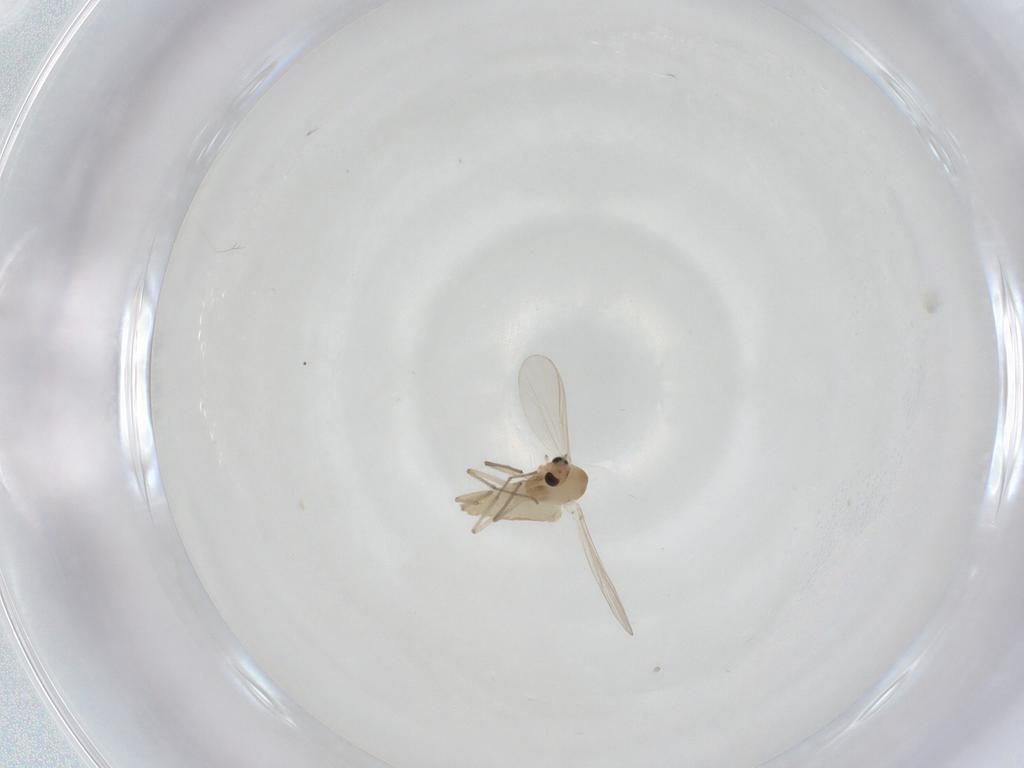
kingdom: Animalia
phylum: Arthropoda
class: Insecta
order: Diptera
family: Chironomidae
